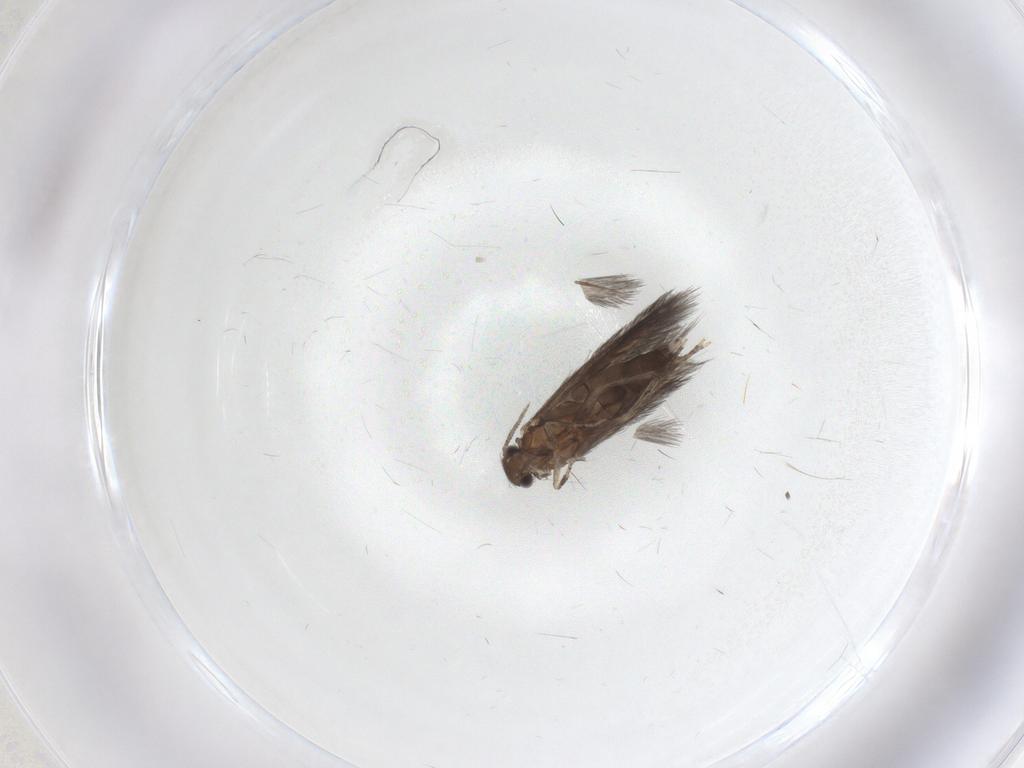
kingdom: Animalia
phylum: Arthropoda
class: Insecta
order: Trichoptera
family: Hydroptilidae
